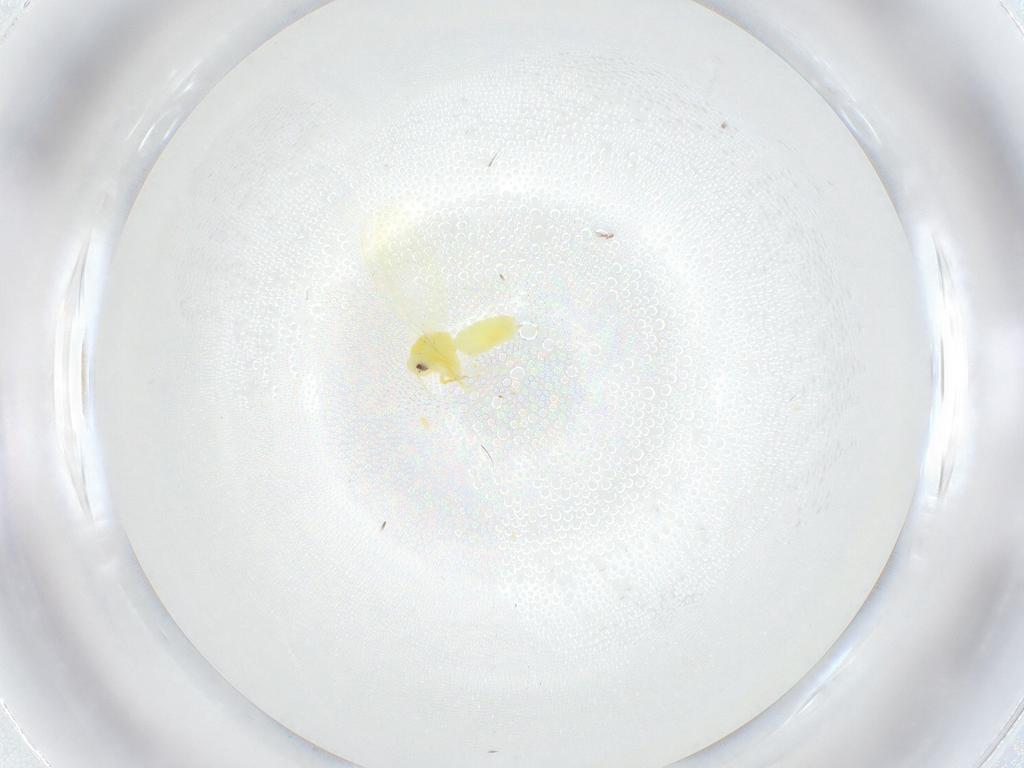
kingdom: Animalia
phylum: Arthropoda
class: Insecta
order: Hemiptera
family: Aleyrodidae
